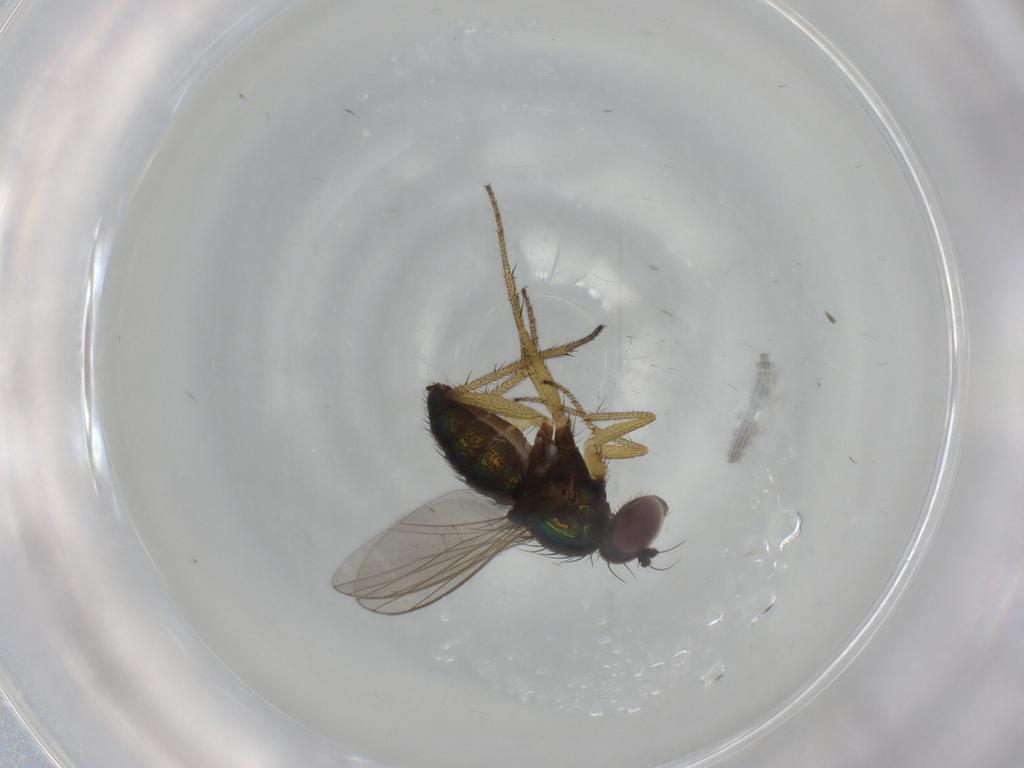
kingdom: Animalia
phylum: Arthropoda
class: Insecta
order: Diptera
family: Dolichopodidae
